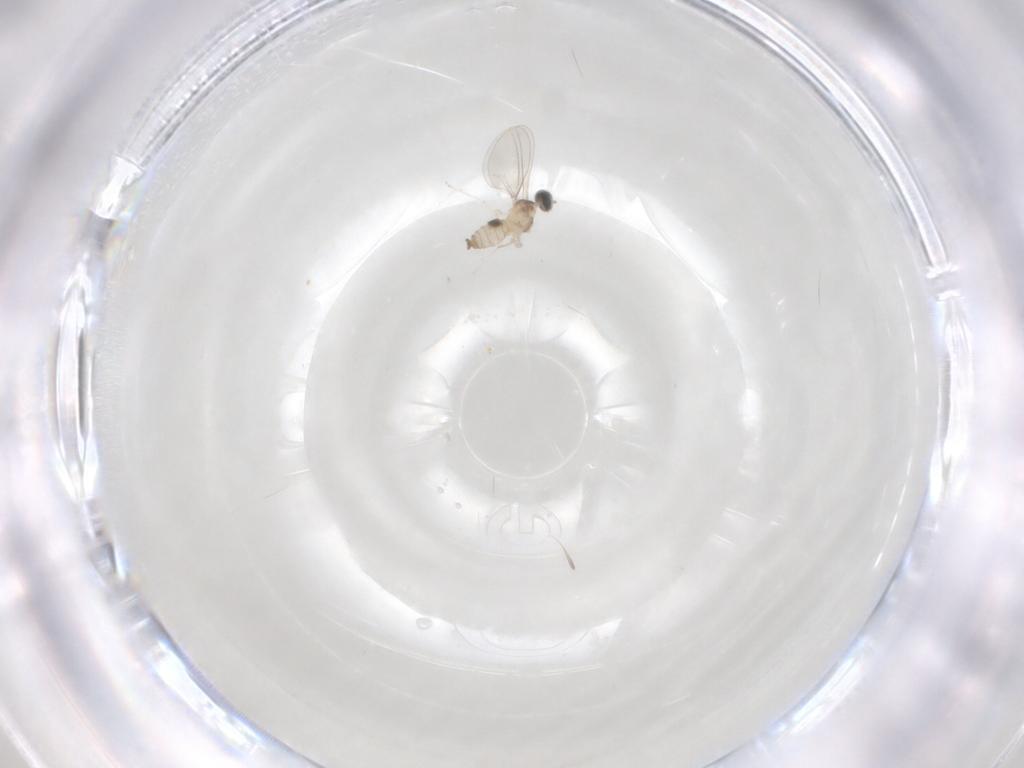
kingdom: Animalia
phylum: Arthropoda
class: Insecta
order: Diptera
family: Cecidomyiidae
